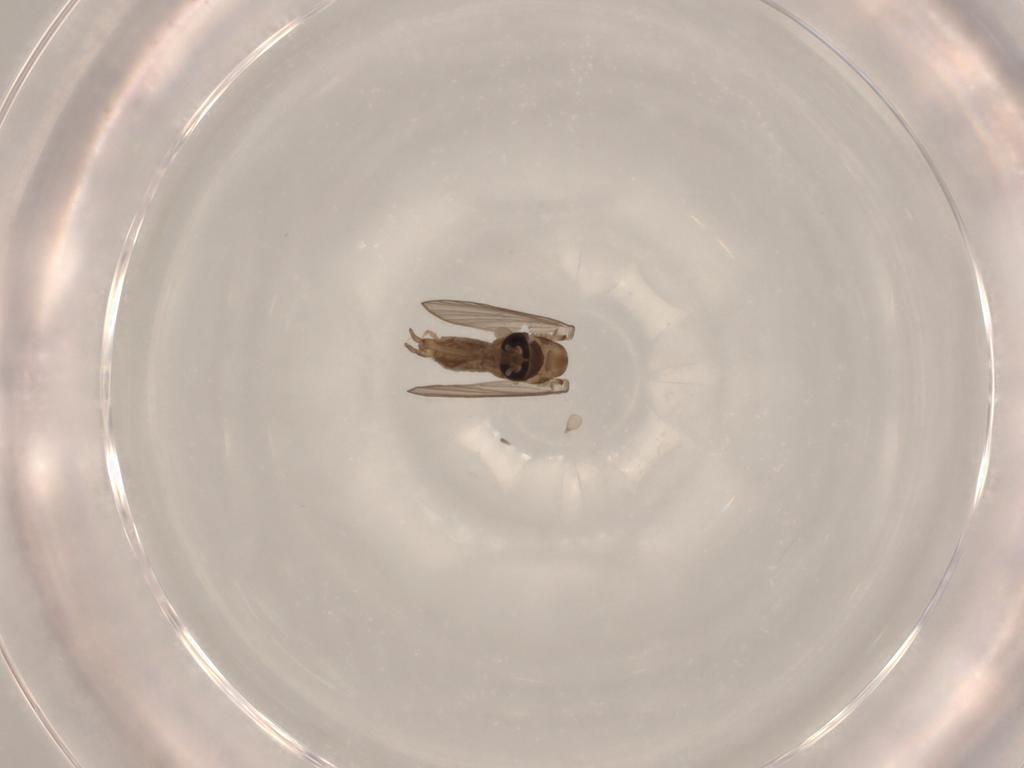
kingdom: Animalia
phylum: Arthropoda
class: Insecta
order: Diptera
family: Psychodidae
